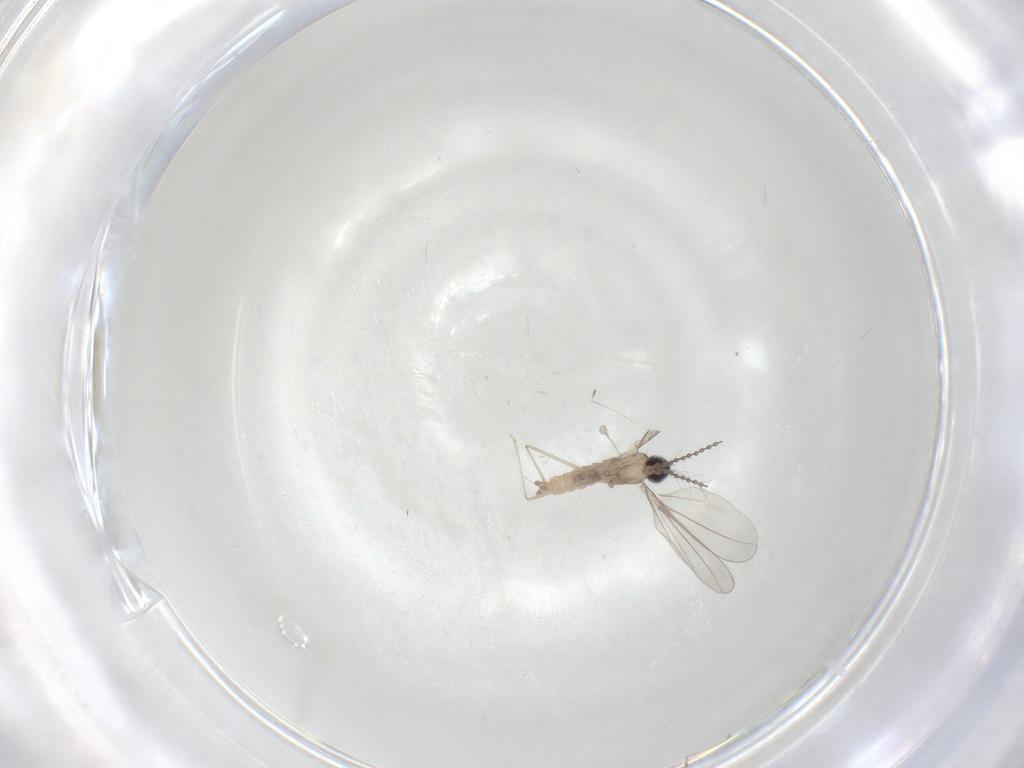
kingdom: Animalia
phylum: Arthropoda
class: Insecta
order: Diptera
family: Cecidomyiidae
